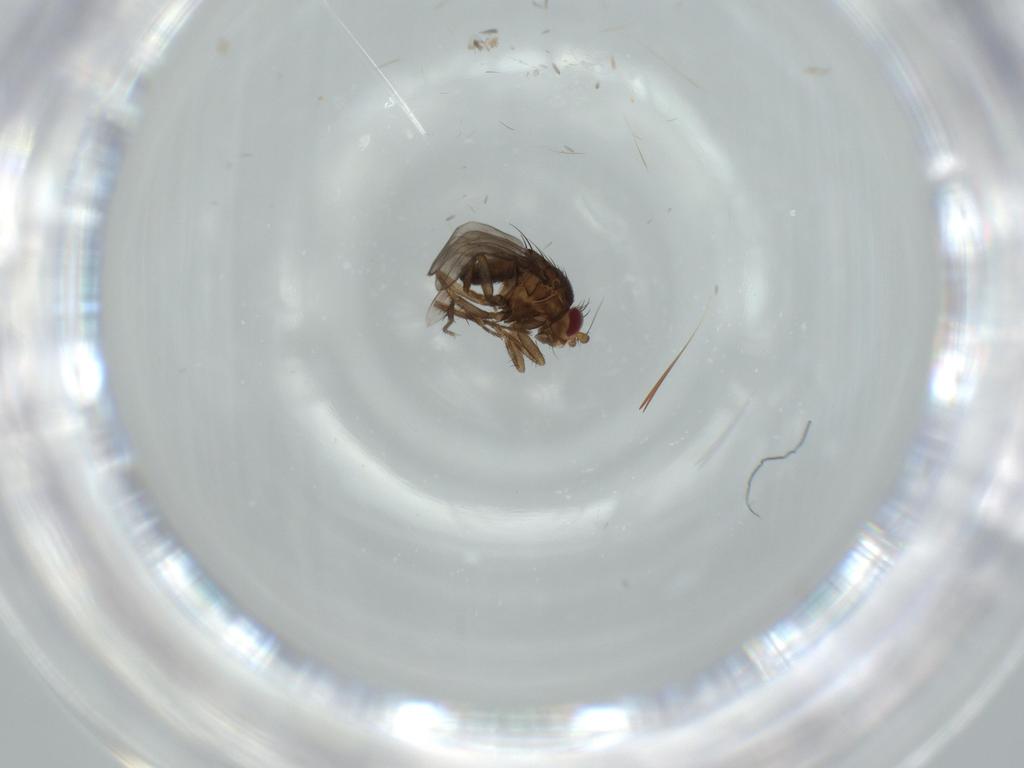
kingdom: Animalia
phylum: Arthropoda
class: Insecta
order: Diptera
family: Cecidomyiidae
